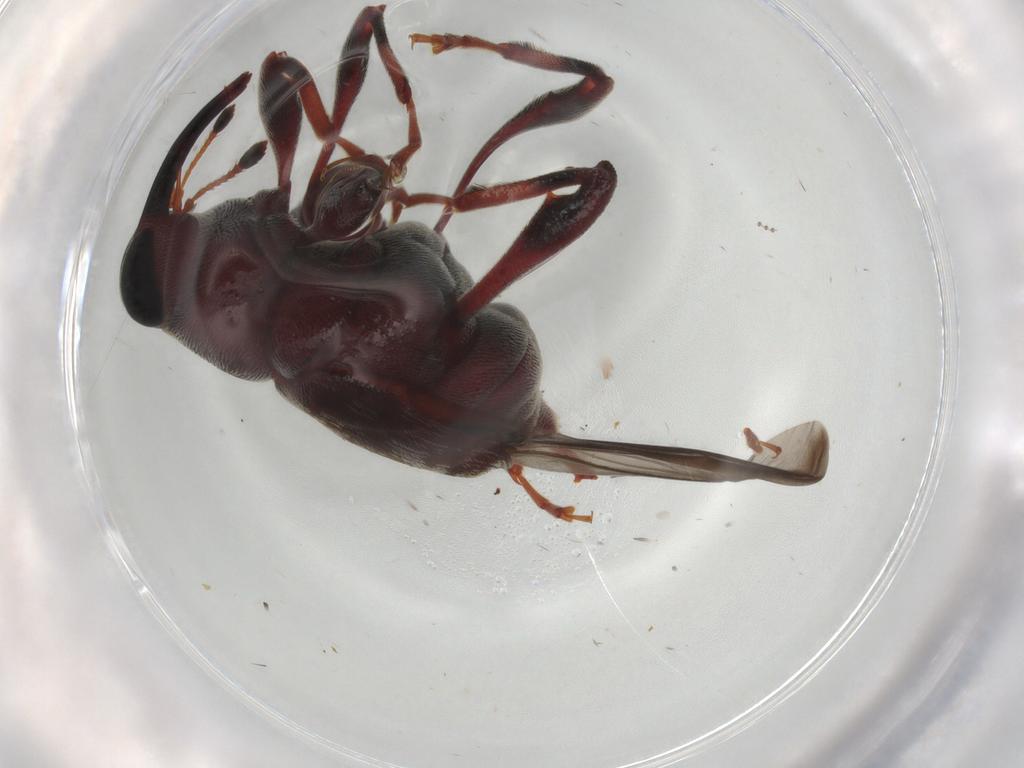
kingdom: Animalia
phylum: Arthropoda
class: Insecta
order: Coleoptera
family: Curculionidae
